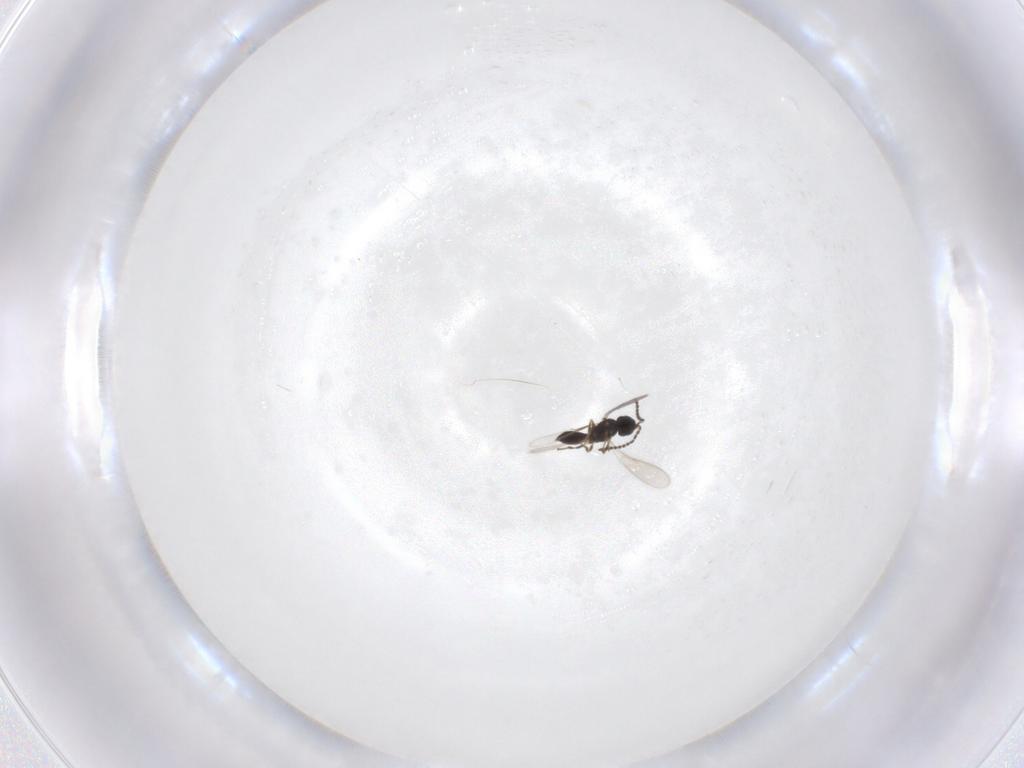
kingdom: Animalia
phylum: Arthropoda
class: Insecta
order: Hymenoptera
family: Scelionidae
